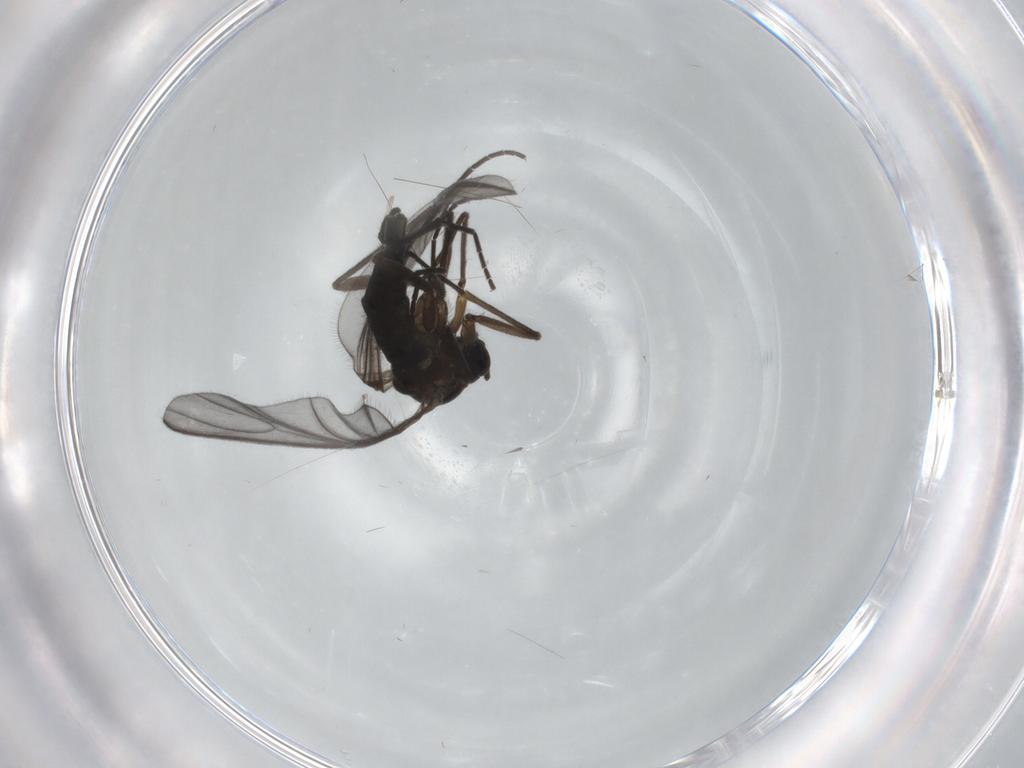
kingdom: Animalia
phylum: Arthropoda
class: Insecta
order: Diptera
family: Sciaridae
